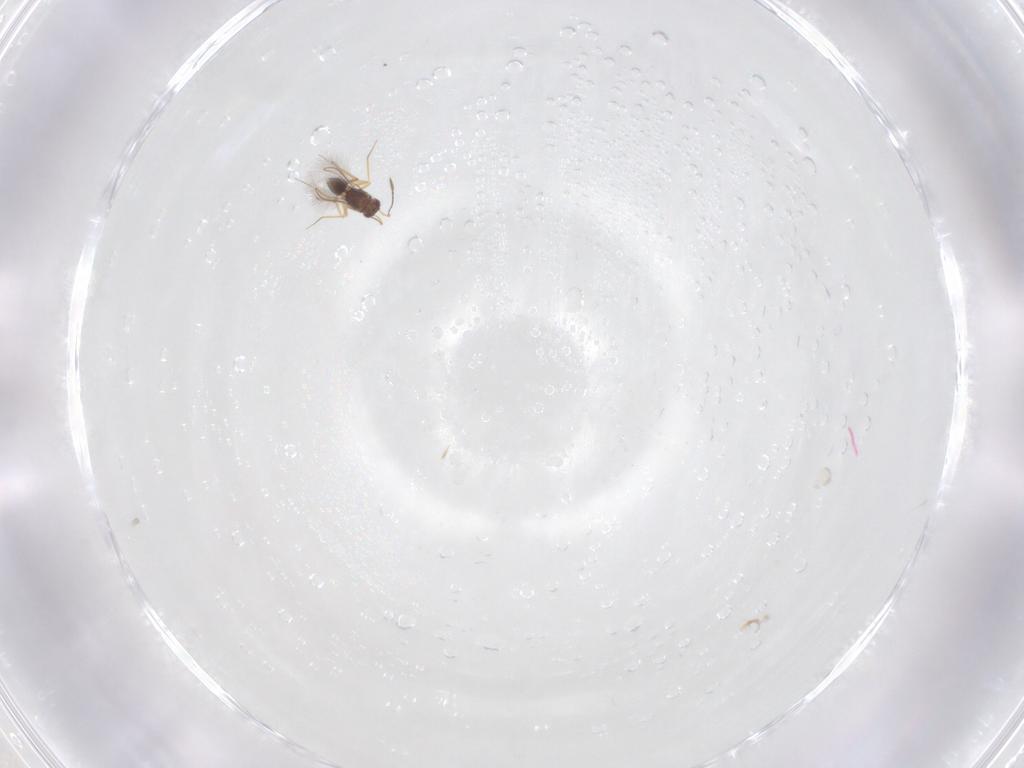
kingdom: Animalia
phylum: Arthropoda
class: Insecta
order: Hymenoptera
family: Mymaridae
